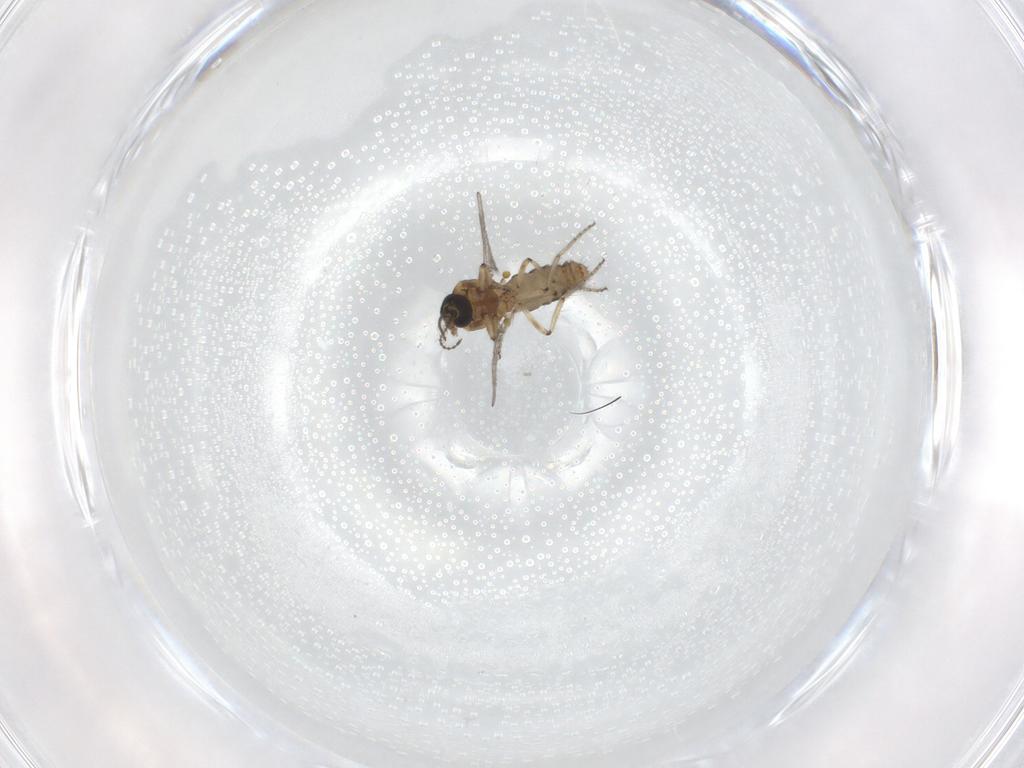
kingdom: Animalia
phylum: Arthropoda
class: Insecta
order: Diptera
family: Ceratopogonidae
